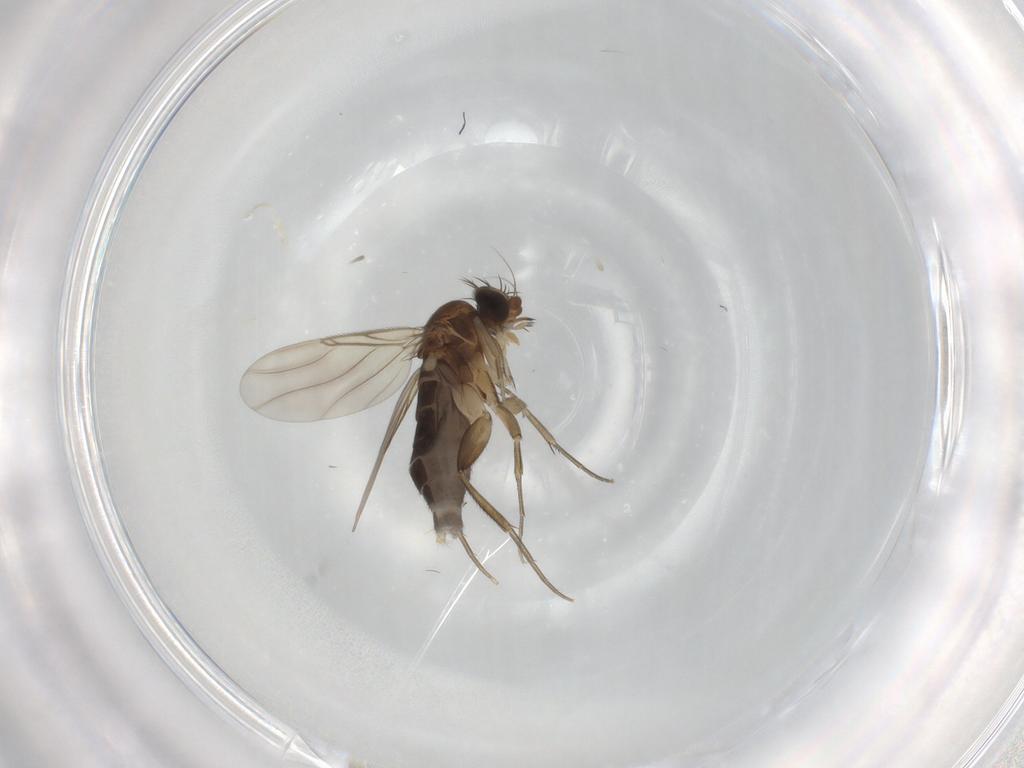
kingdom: Animalia
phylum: Arthropoda
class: Insecta
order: Diptera
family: Phoridae
